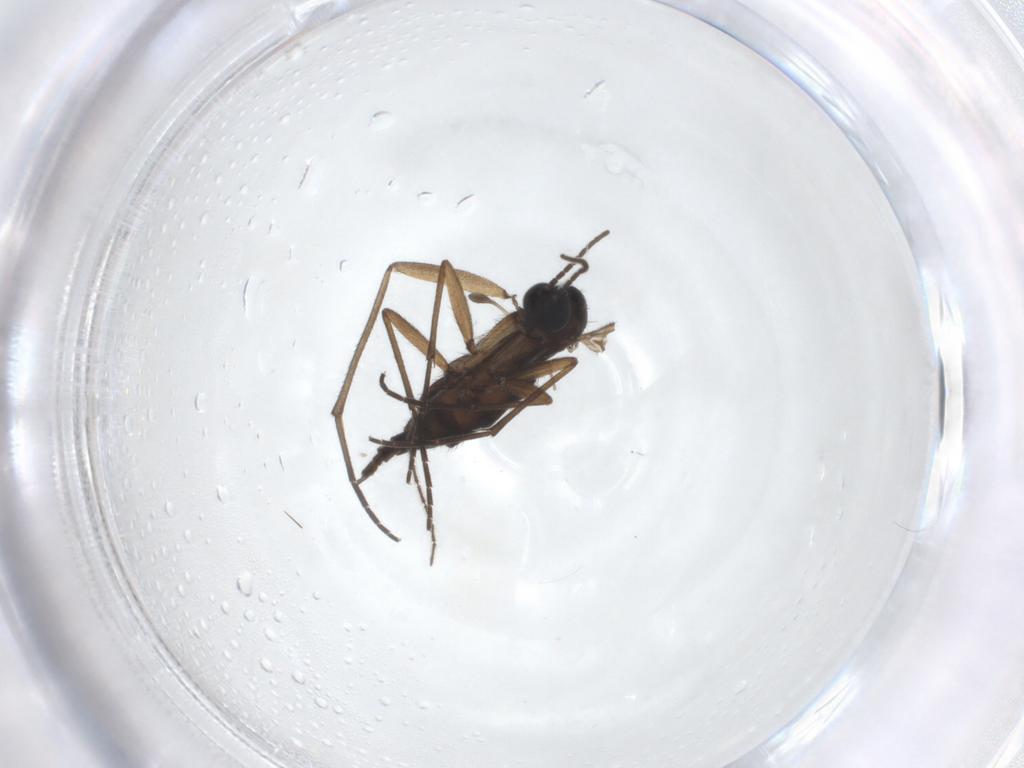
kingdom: Animalia
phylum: Arthropoda
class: Insecta
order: Diptera
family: Sciaridae
